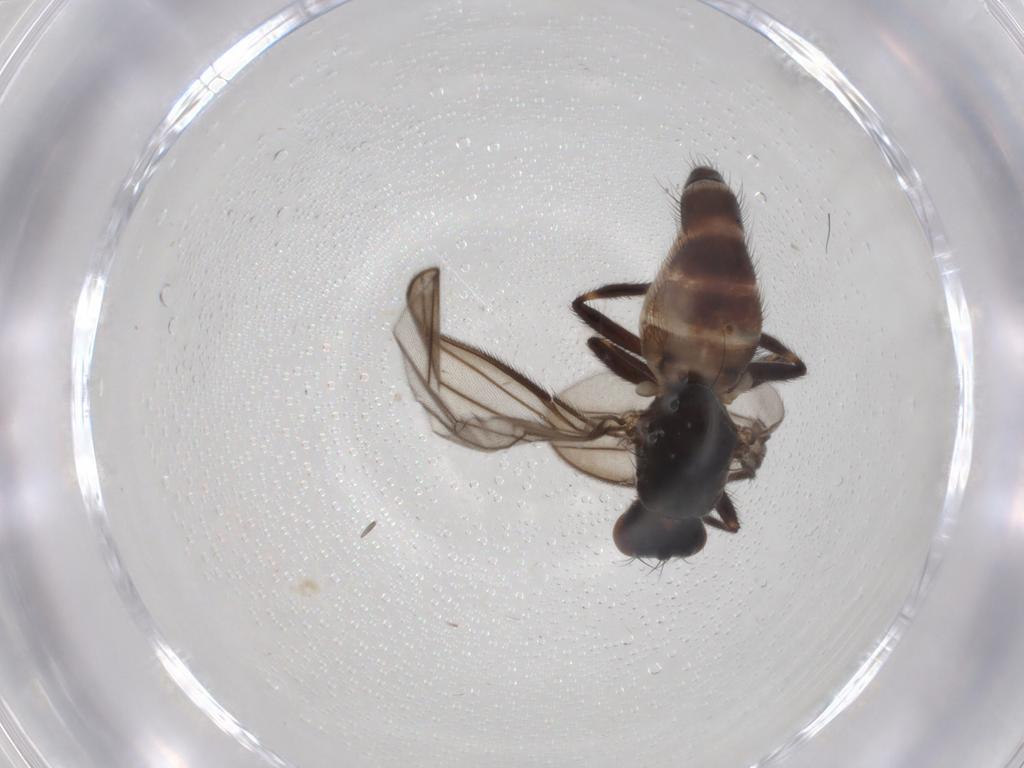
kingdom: Animalia
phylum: Arthropoda
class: Insecta
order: Diptera
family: Chloropidae
